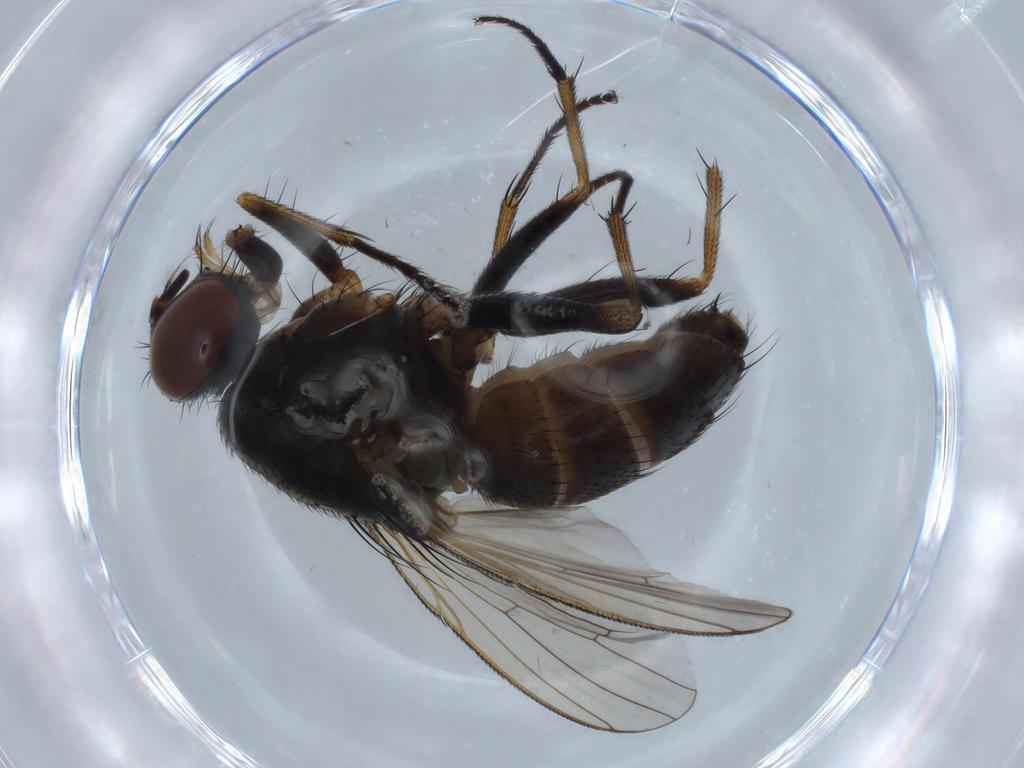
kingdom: Animalia
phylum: Arthropoda
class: Insecta
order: Diptera
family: Muscidae
